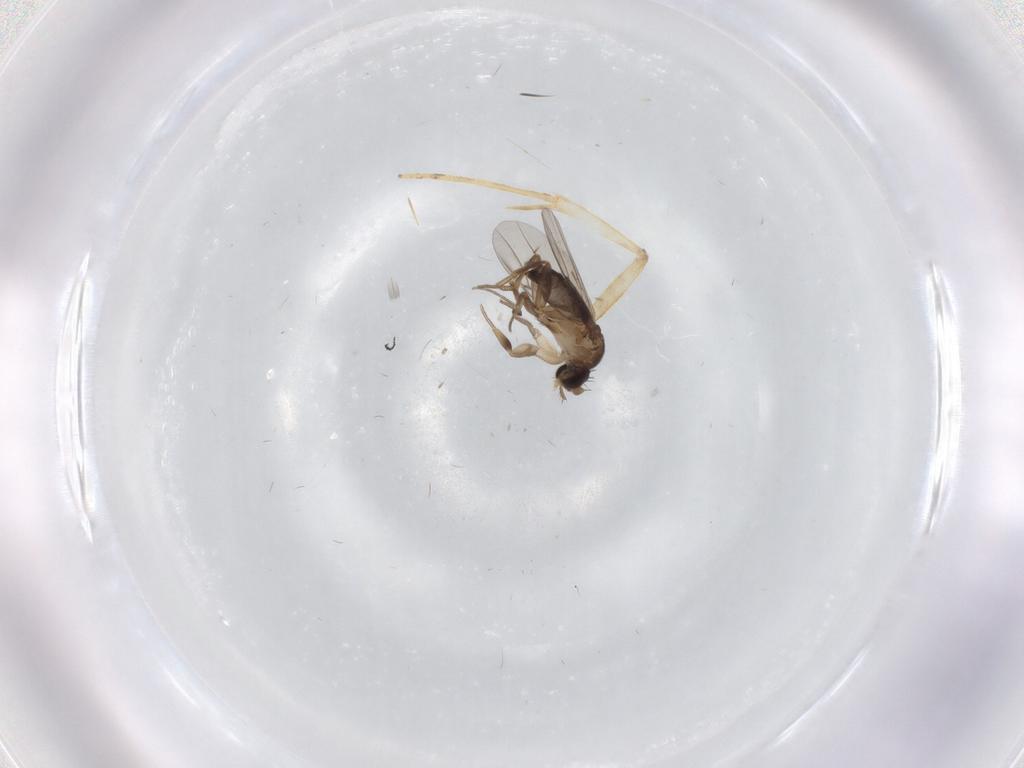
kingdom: Animalia
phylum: Arthropoda
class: Insecta
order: Diptera
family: Phoridae
